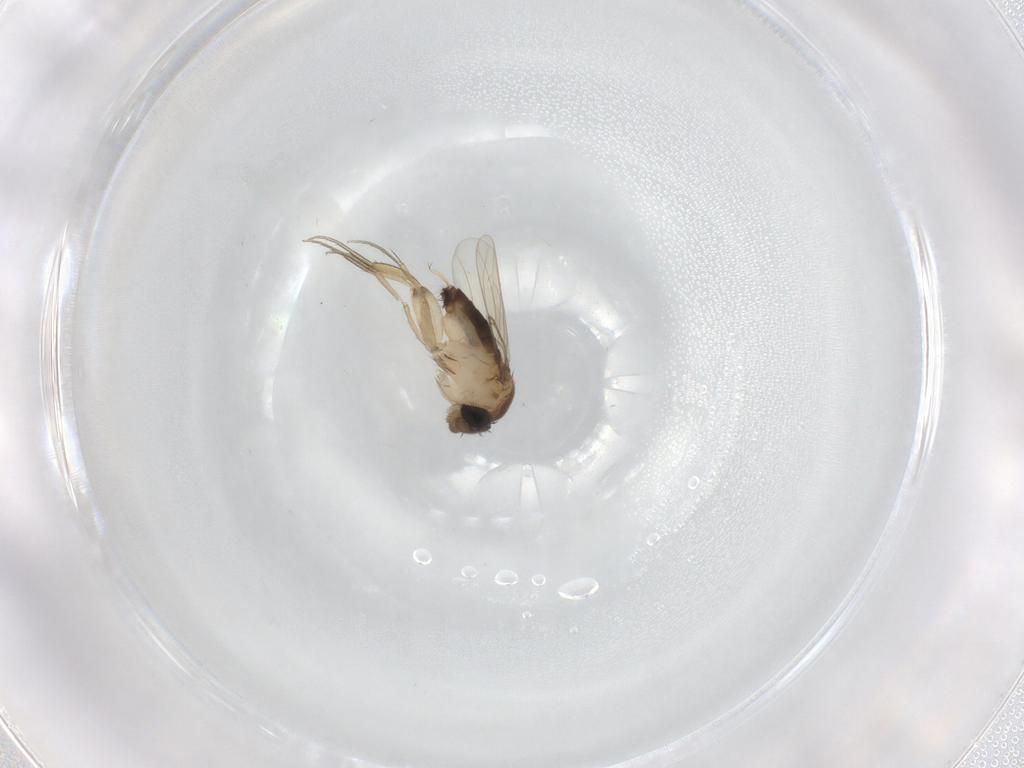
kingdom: Animalia
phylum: Arthropoda
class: Insecta
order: Diptera
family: Phoridae
